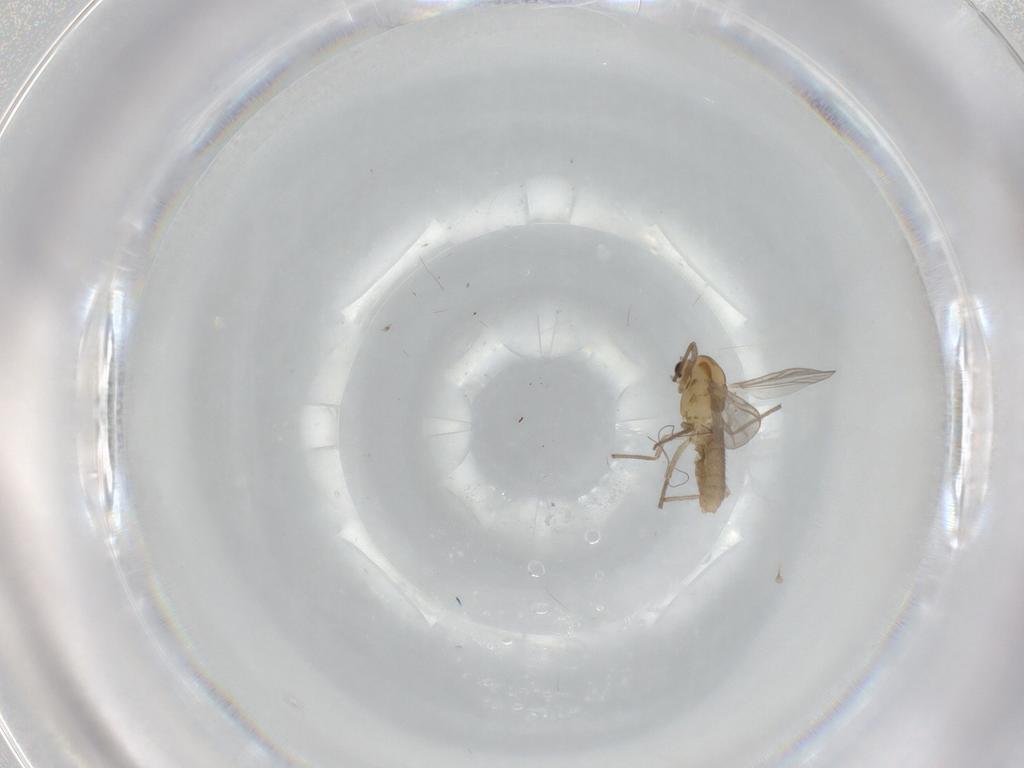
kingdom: Animalia
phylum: Arthropoda
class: Insecta
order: Diptera
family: Chironomidae
